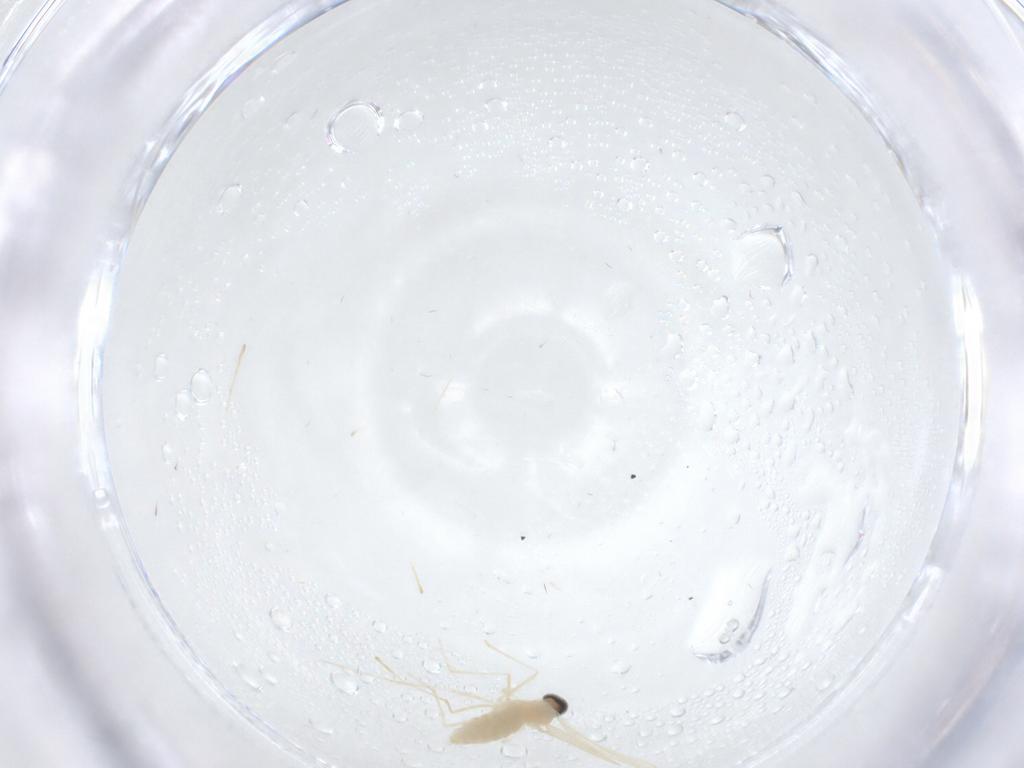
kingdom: Animalia
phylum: Arthropoda
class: Insecta
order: Diptera
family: Cecidomyiidae
